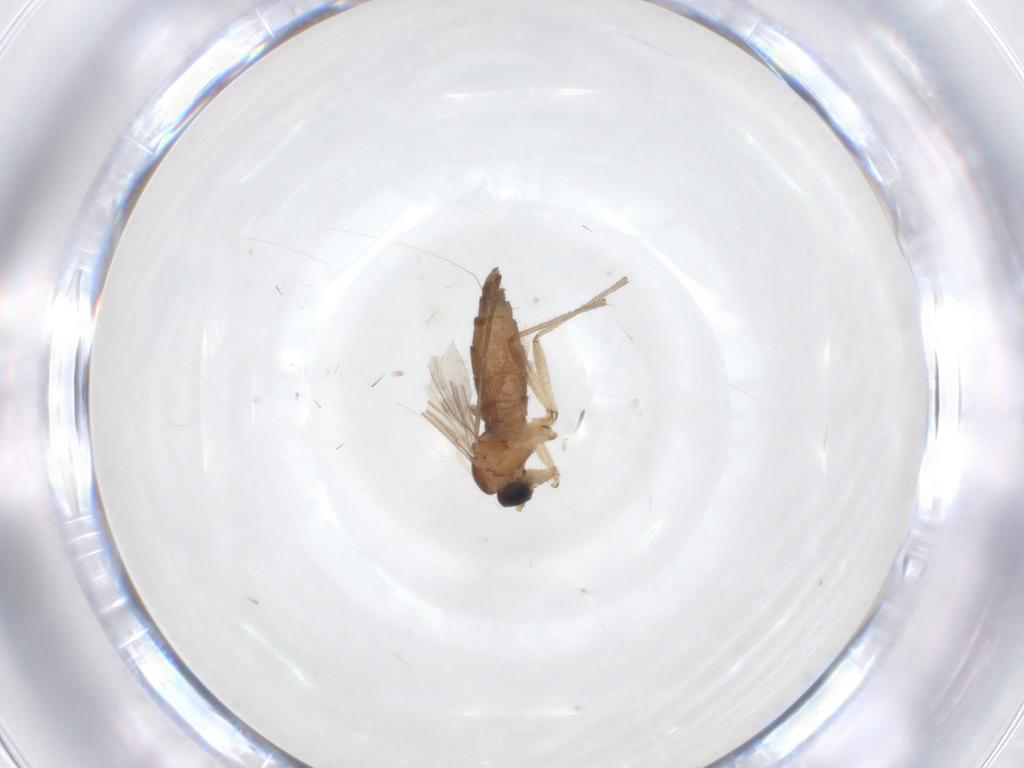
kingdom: Animalia
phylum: Arthropoda
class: Insecta
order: Diptera
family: Sciaridae
